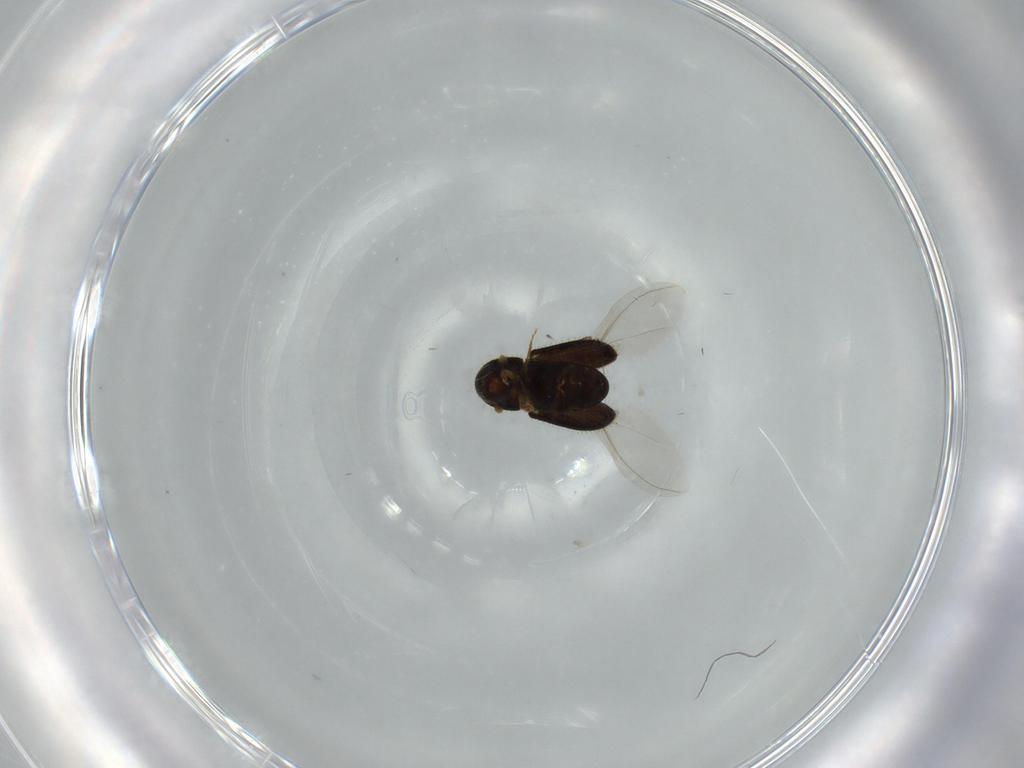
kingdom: Animalia
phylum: Arthropoda
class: Insecta
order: Coleoptera
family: Curculionidae
